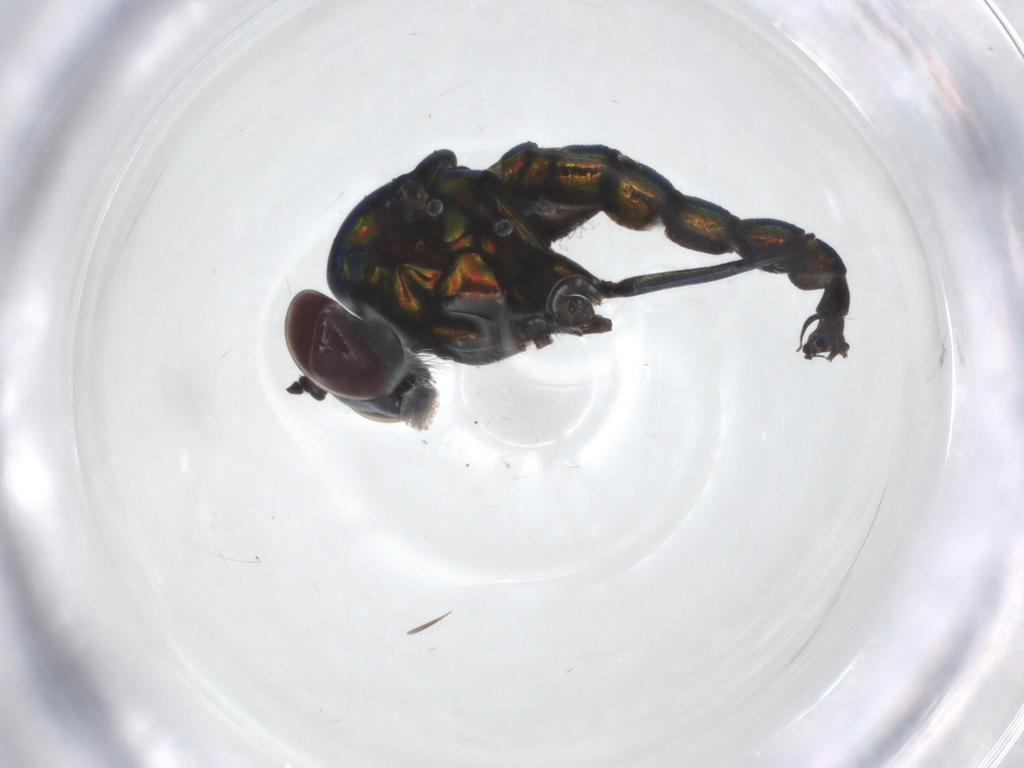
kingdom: Animalia
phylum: Arthropoda
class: Insecta
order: Diptera
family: Dolichopodidae
